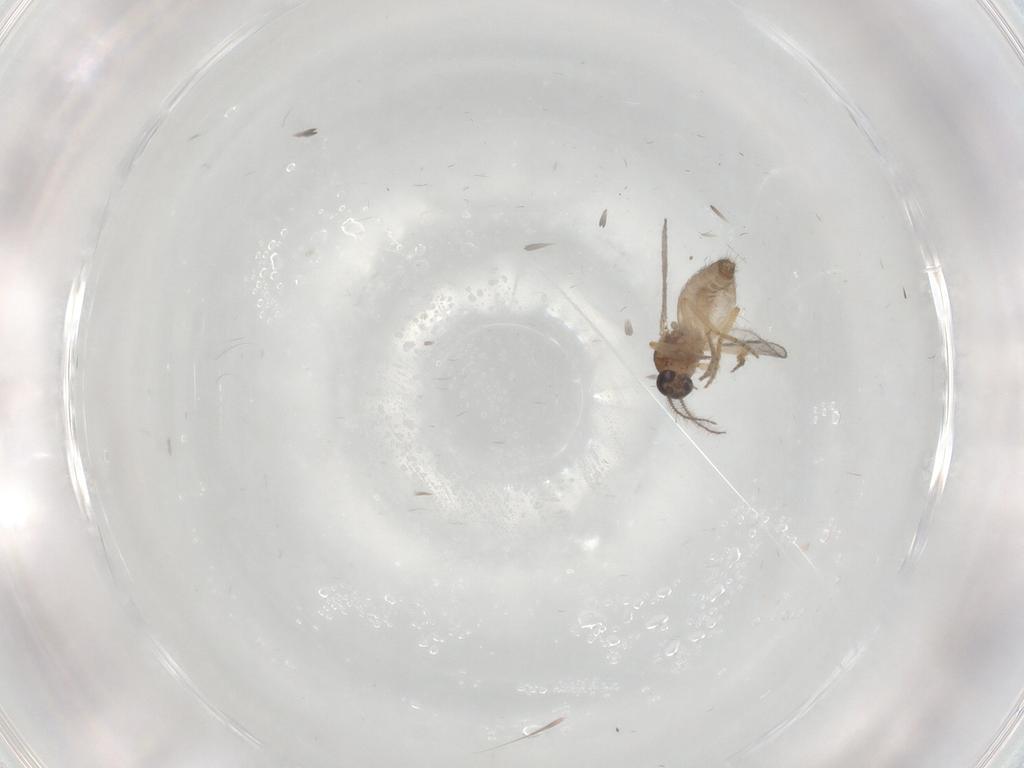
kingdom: Animalia
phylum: Arthropoda
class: Insecta
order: Diptera
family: Ceratopogonidae
